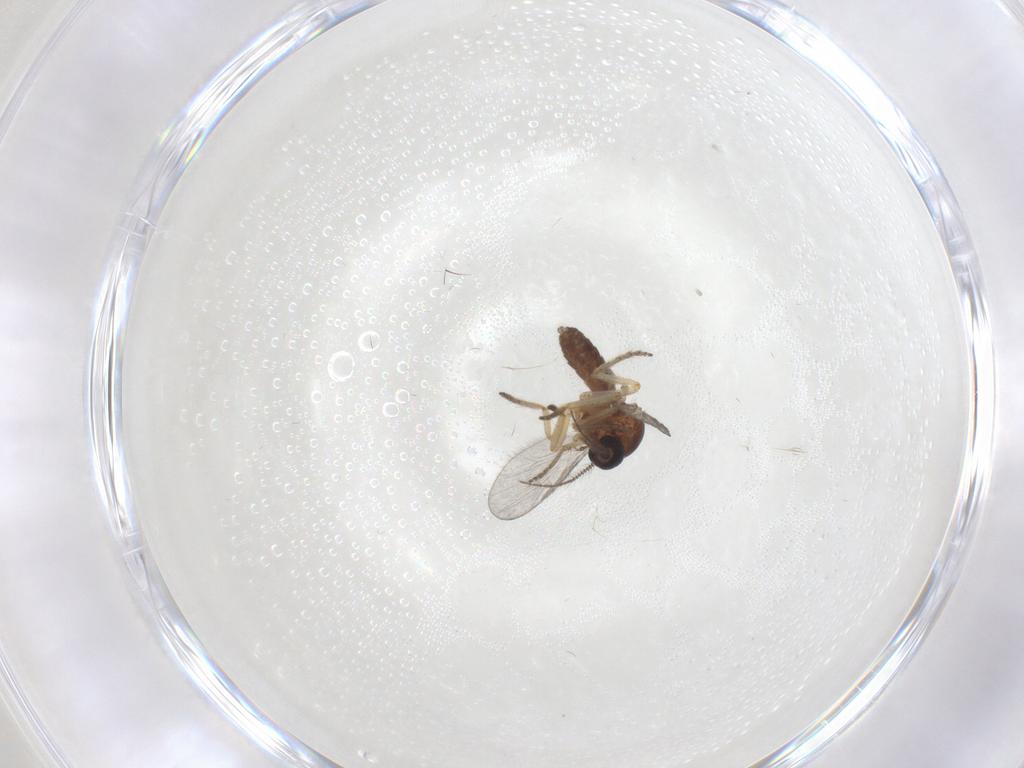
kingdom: Animalia
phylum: Arthropoda
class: Insecta
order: Diptera
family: Ceratopogonidae
